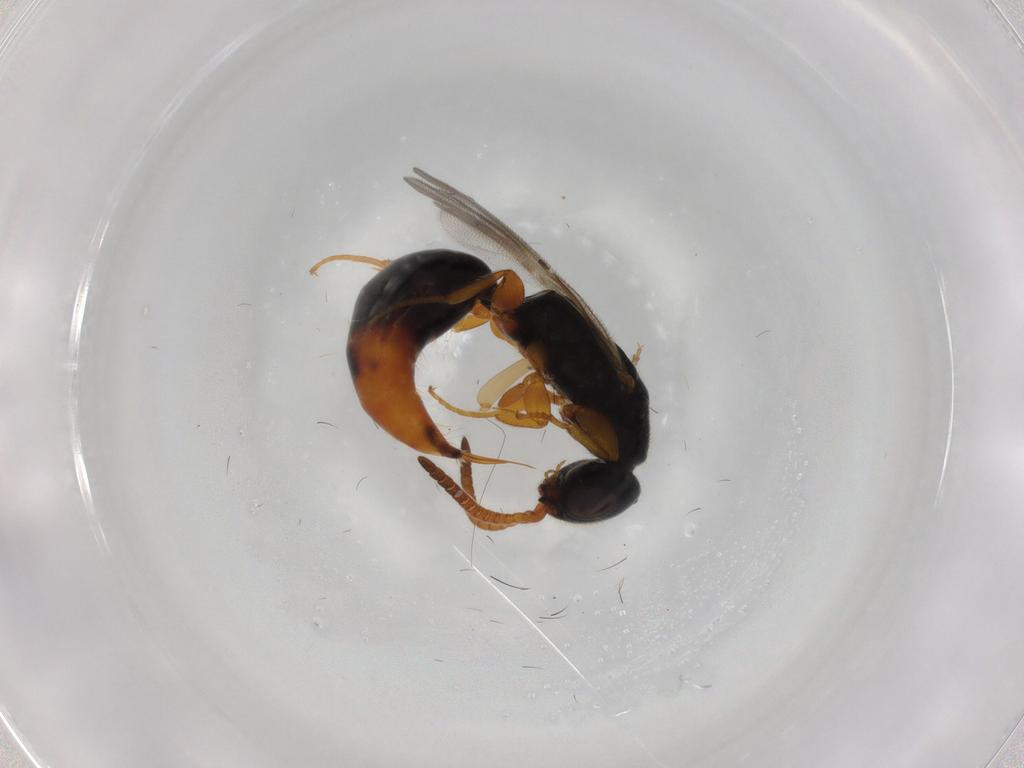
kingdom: Animalia
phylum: Arthropoda
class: Insecta
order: Hymenoptera
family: Bethylidae
